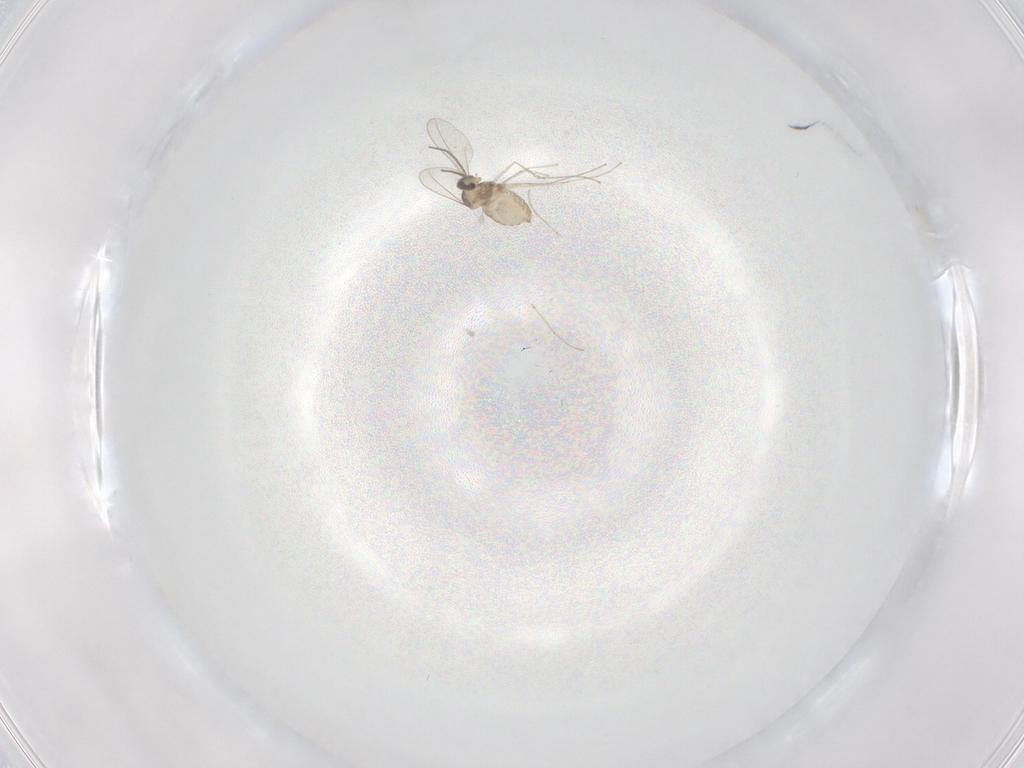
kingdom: Animalia
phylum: Arthropoda
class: Insecta
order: Diptera
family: Cecidomyiidae
